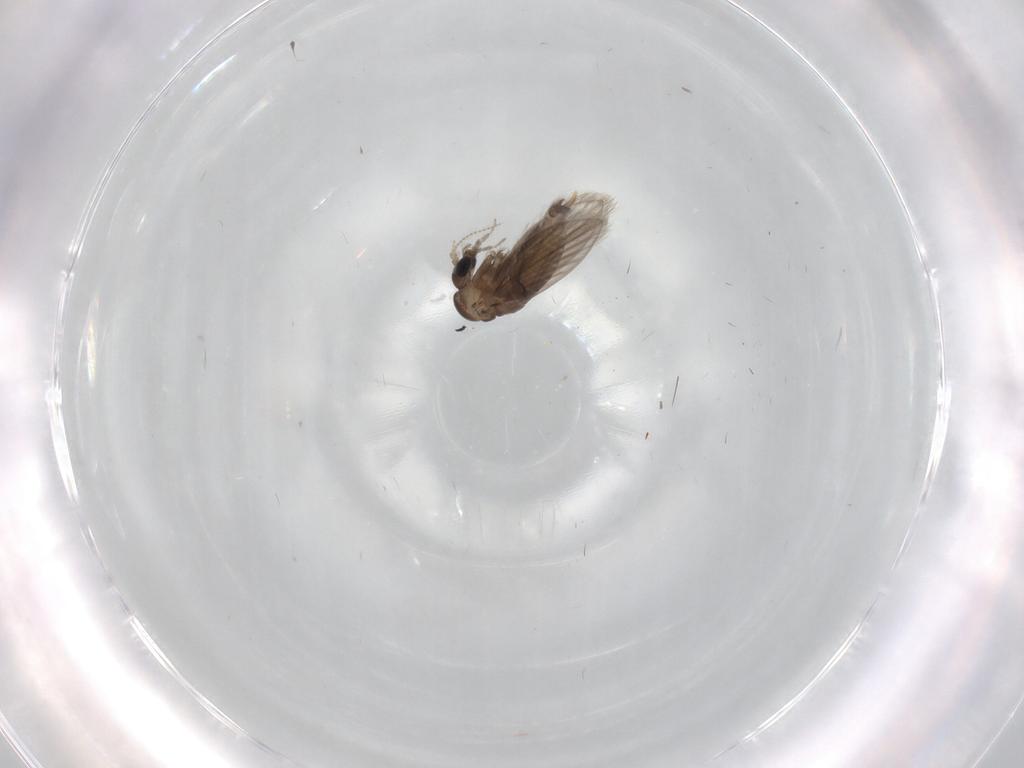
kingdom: Animalia
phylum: Arthropoda
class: Insecta
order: Diptera
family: Psychodidae
